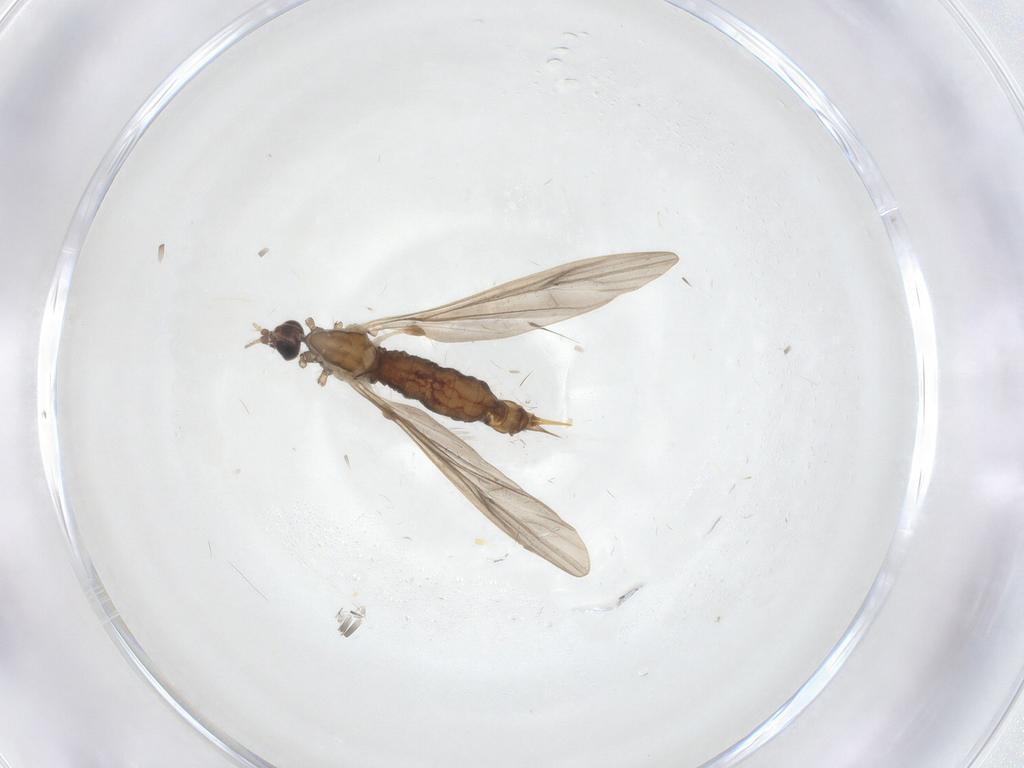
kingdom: Animalia
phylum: Arthropoda
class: Insecta
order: Diptera
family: Limoniidae
